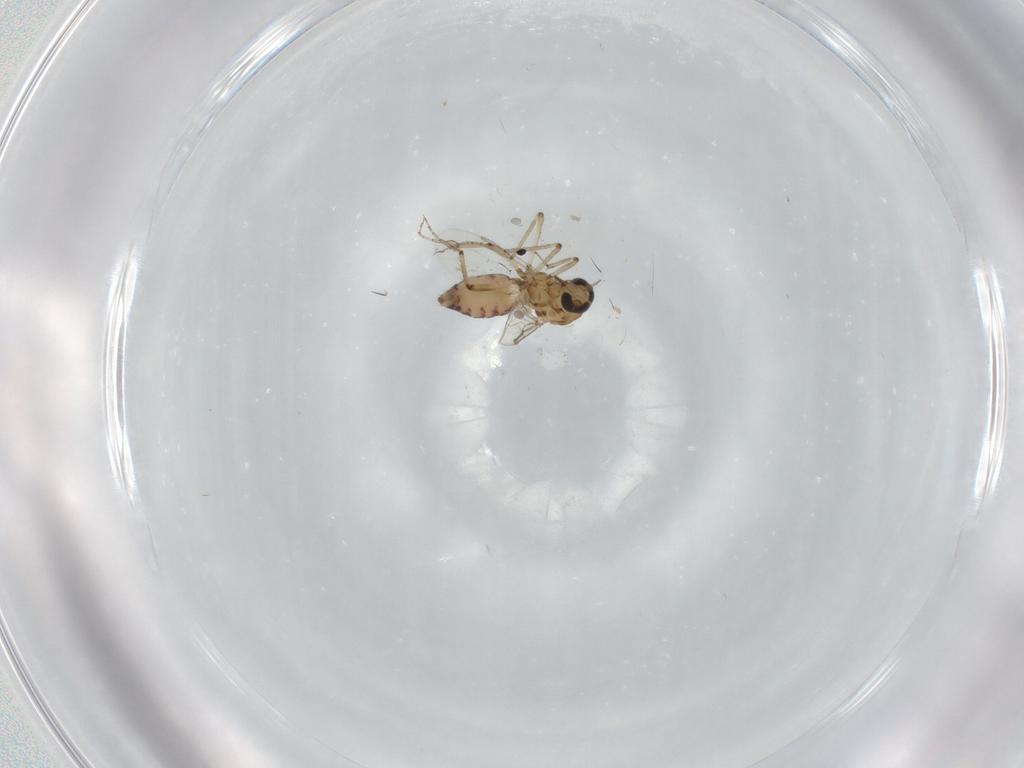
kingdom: Animalia
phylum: Arthropoda
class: Insecta
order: Diptera
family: Ceratopogonidae
